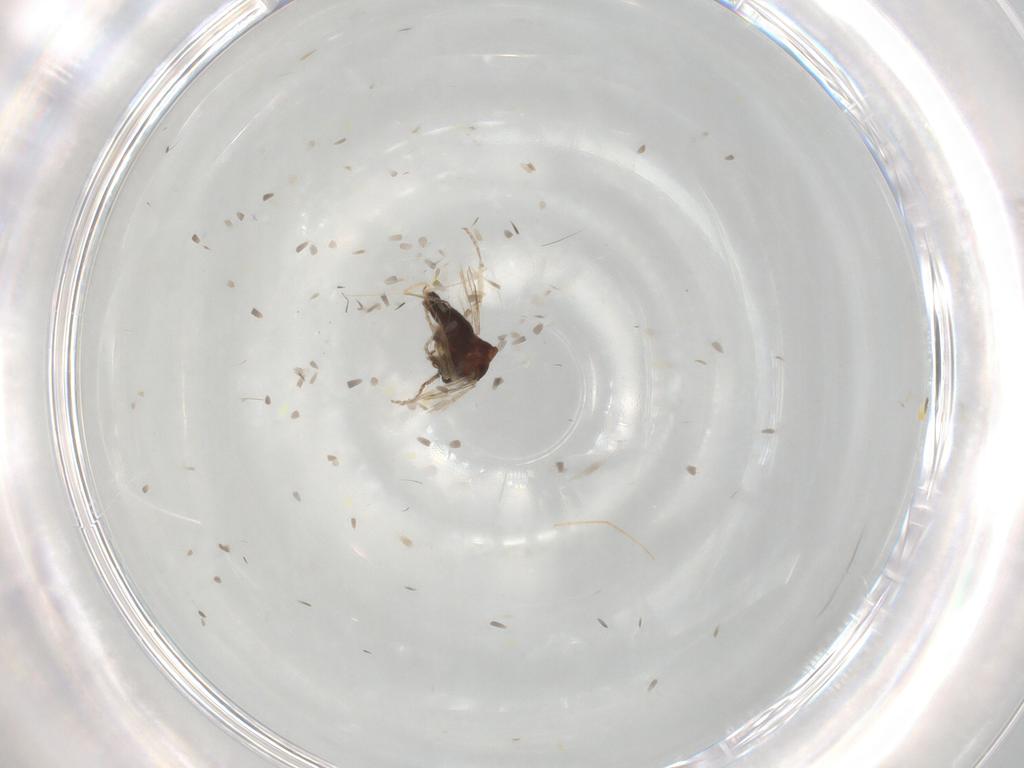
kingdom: Animalia
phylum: Arthropoda
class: Insecta
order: Diptera
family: Ceratopogonidae
